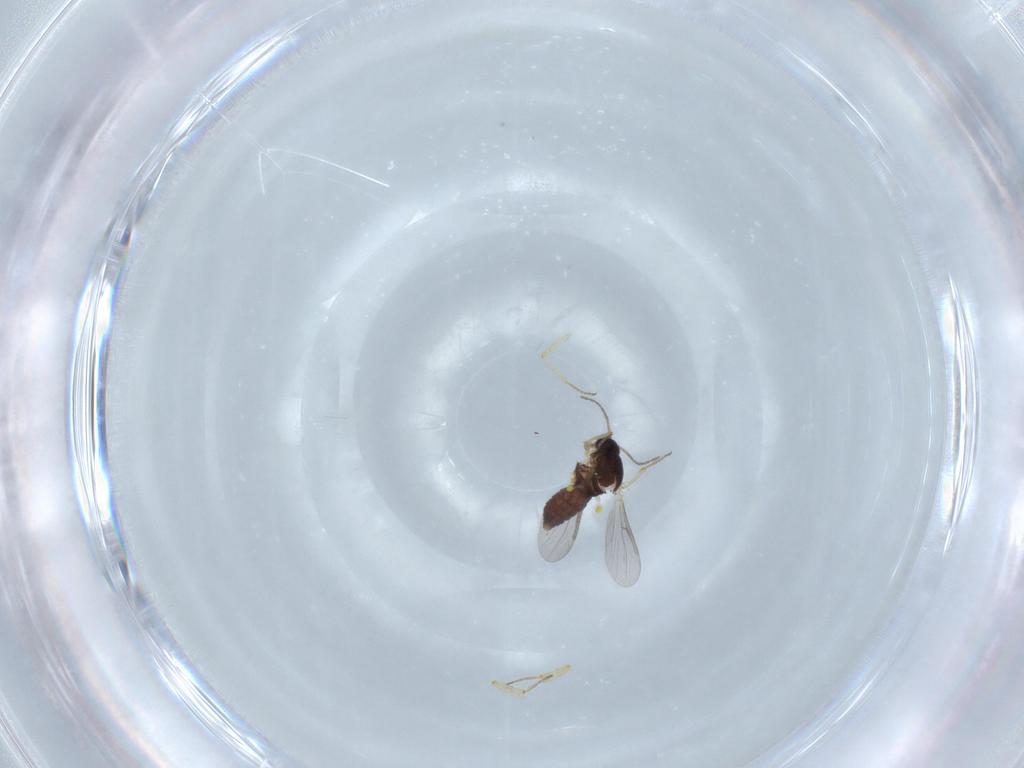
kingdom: Animalia
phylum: Arthropoda
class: Insecta
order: Diptera
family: Ceratopogonidae
